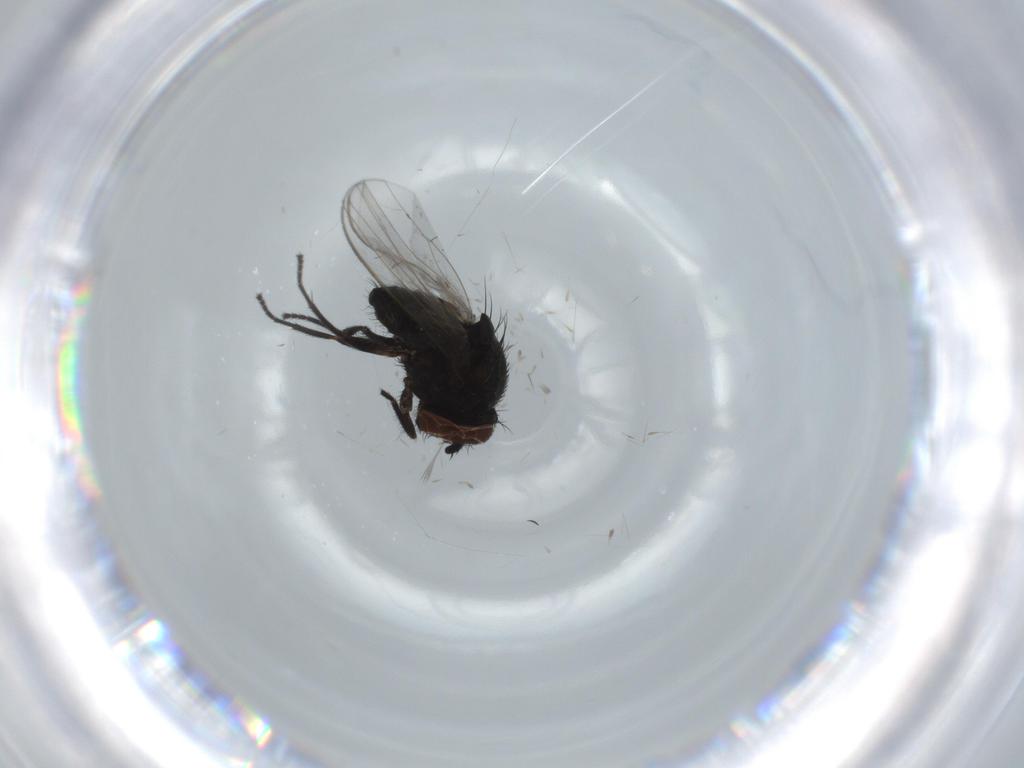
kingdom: Animalia
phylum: Arthropoda
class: Insecta
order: Diptera
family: Milichiidae
